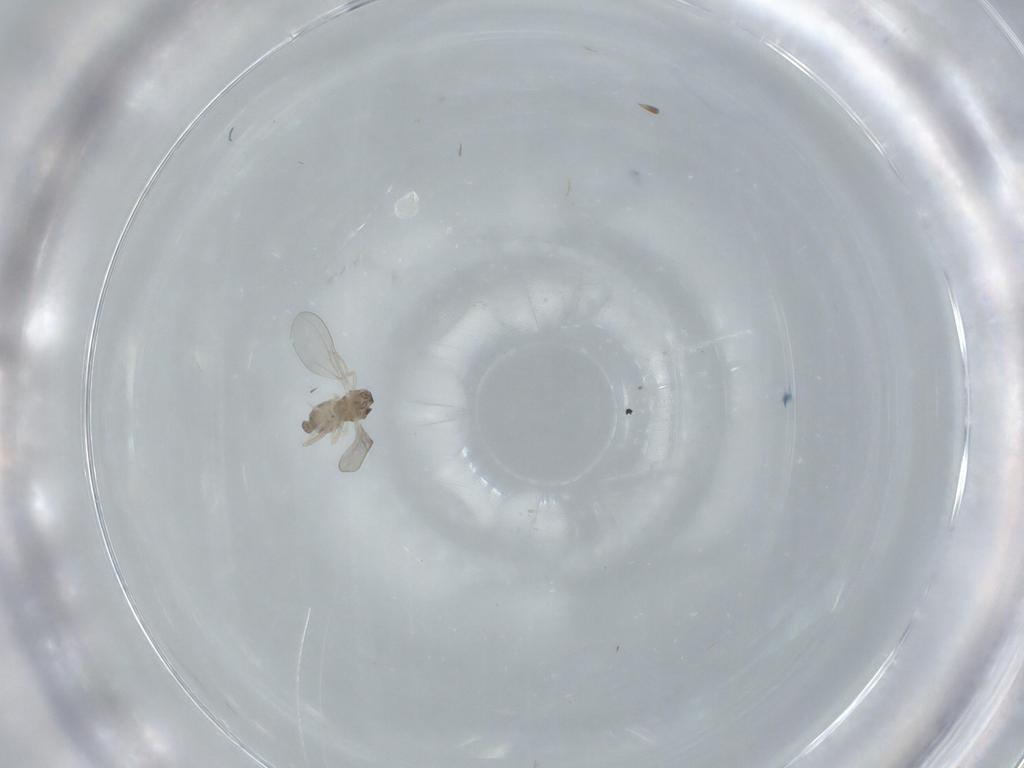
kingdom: Animalia
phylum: Arthropoda
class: Insecta
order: Diptera
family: Cecidomyiidae
